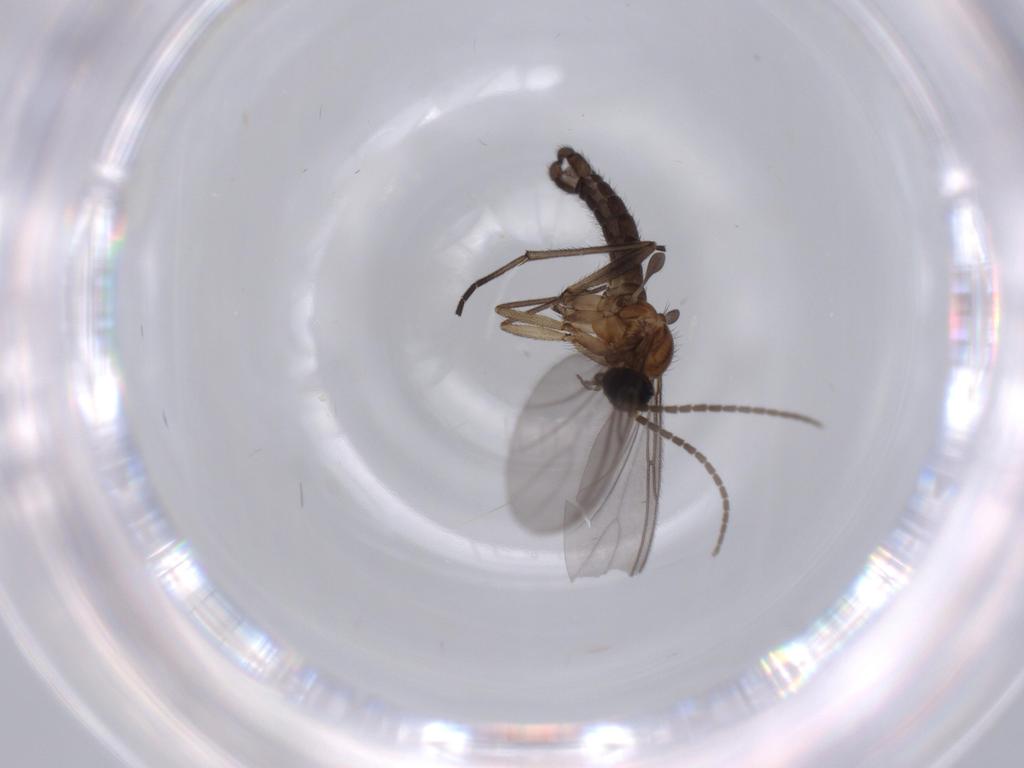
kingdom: Animalia
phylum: Arthropoda
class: Insecta
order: Diptera
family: Sciaridae
